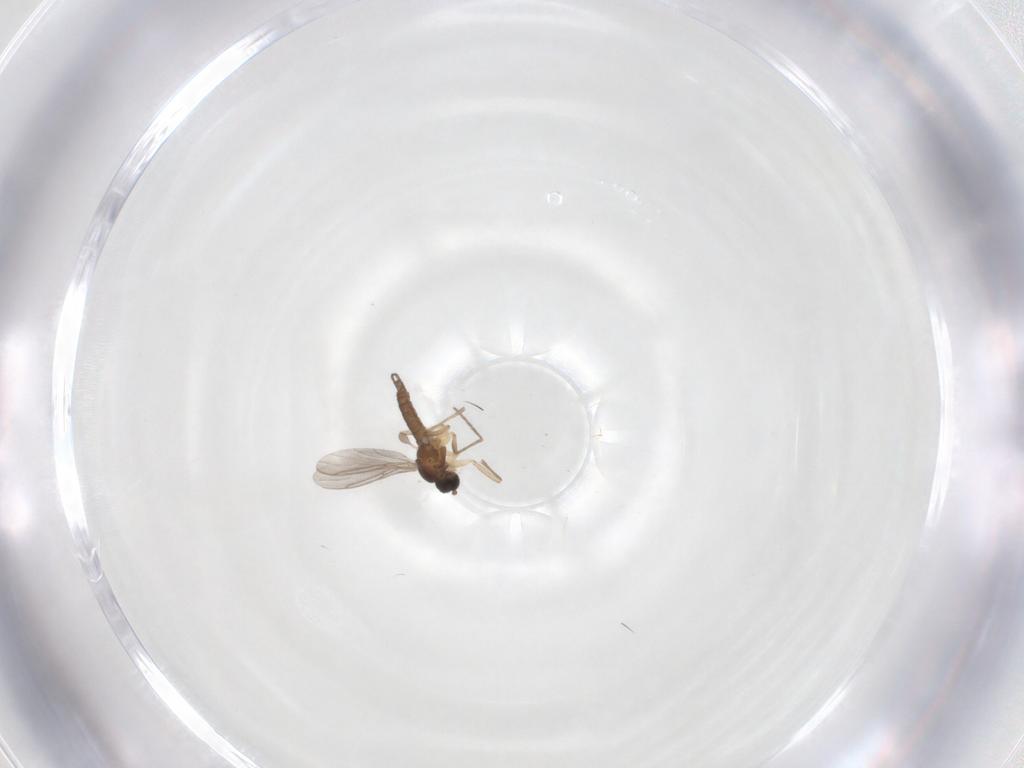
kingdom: Animalia
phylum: Arthropoda
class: Insecta
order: Diptera
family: Sciaridae
